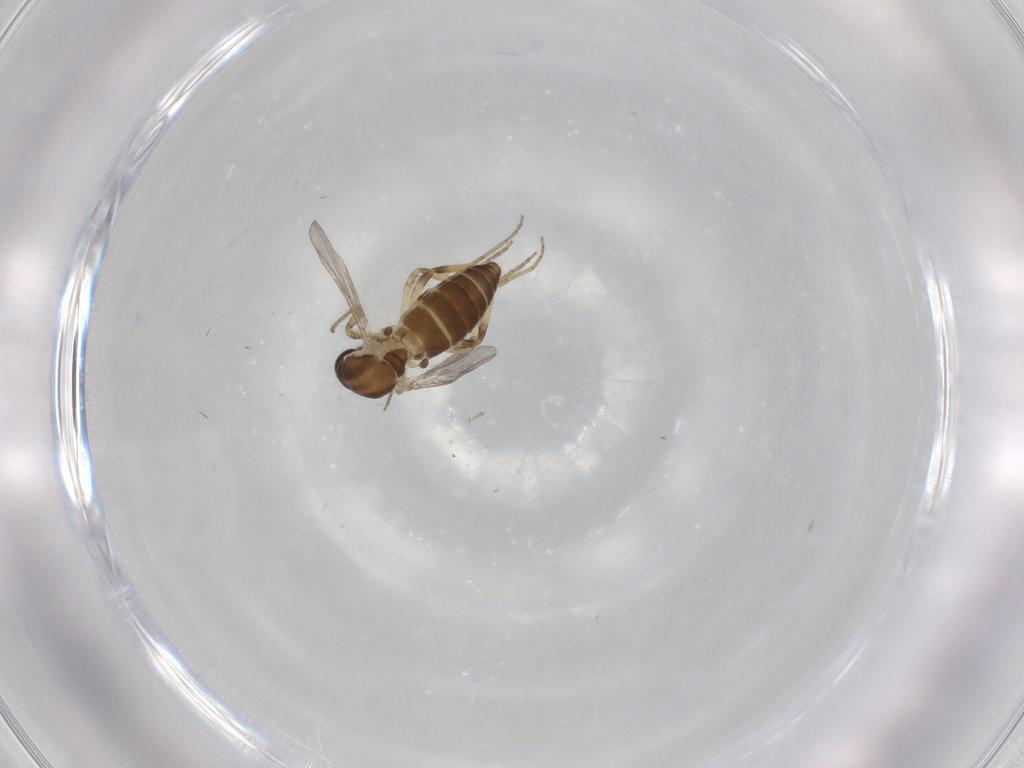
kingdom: Animalia
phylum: Arthropoda
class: Insecta
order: Diptera
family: Ceratopogonidae
